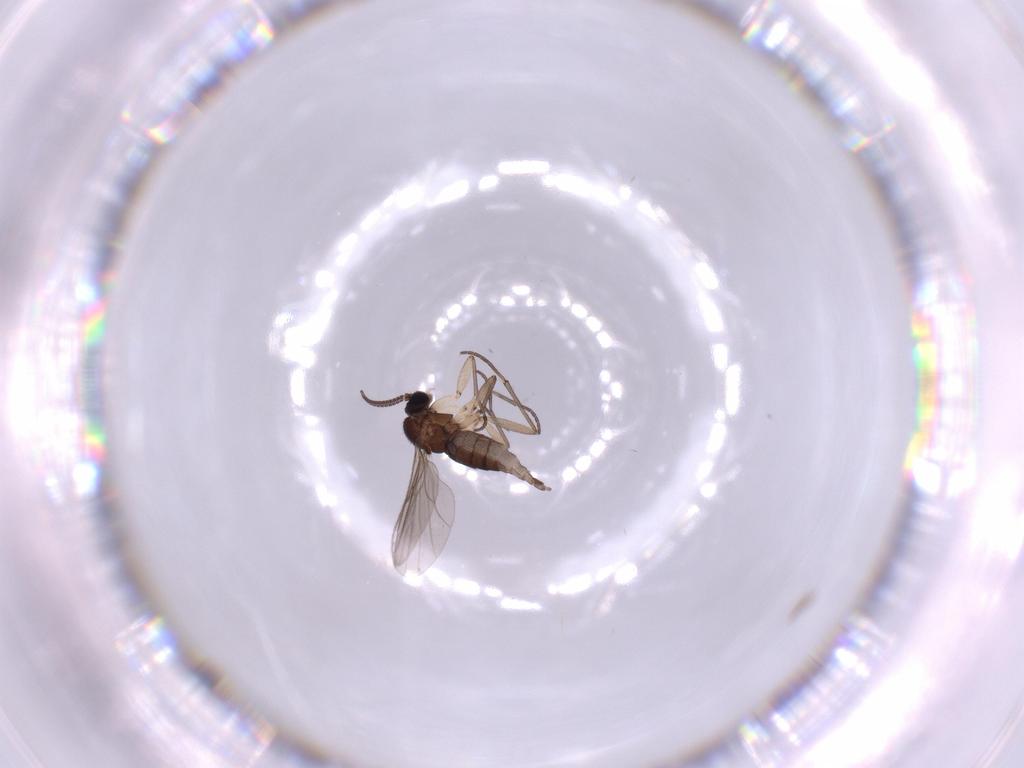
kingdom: Animalia
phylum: Arthropoda
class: Insecta
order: Diptera
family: Sciaridae
